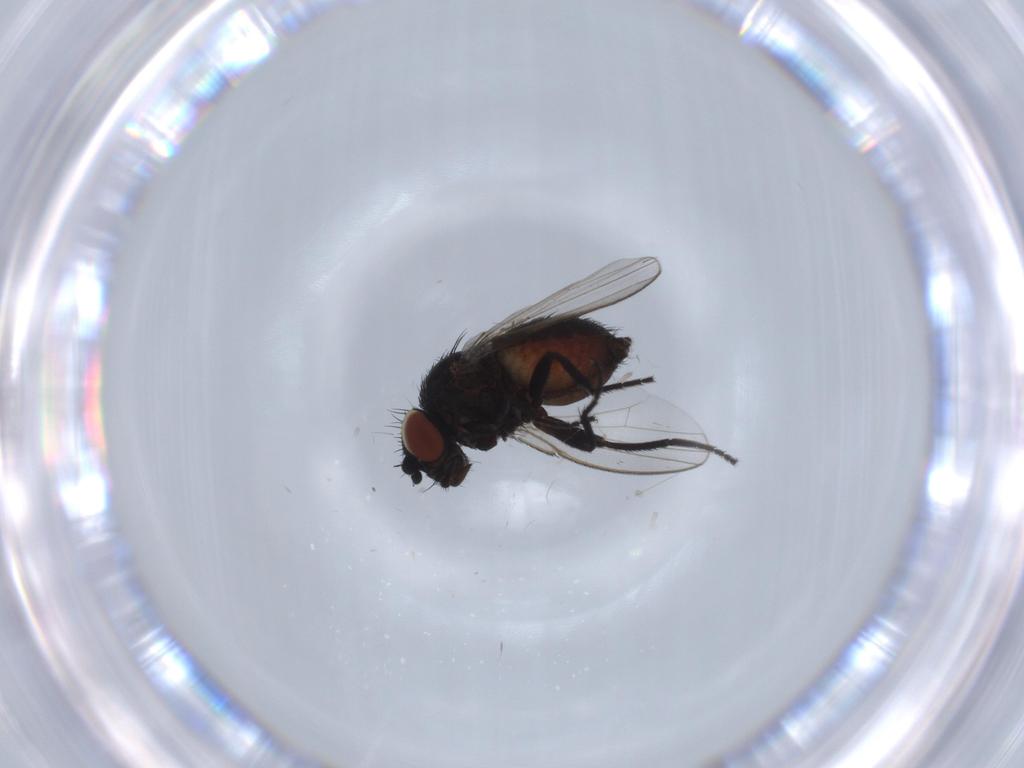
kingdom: Animalia
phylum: Arthropoda
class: Insecta
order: Diptera
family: Milichiidae
